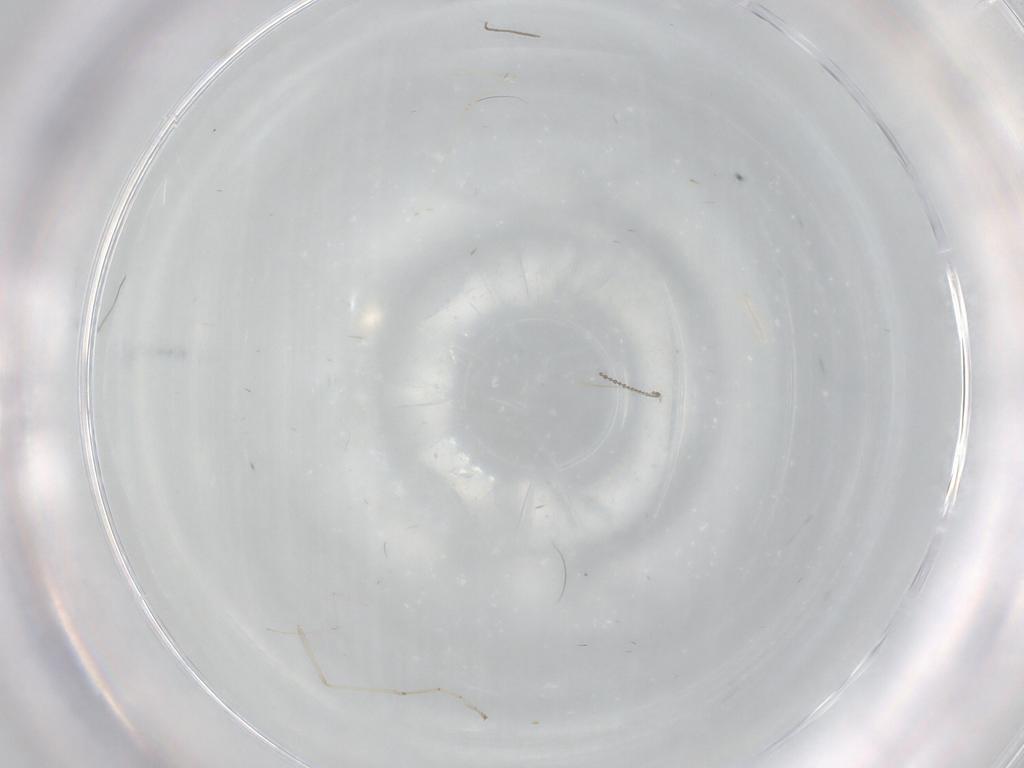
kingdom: Animalia
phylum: Arthropoda
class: Insecta
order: Diptera
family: Cecidomyiidae
